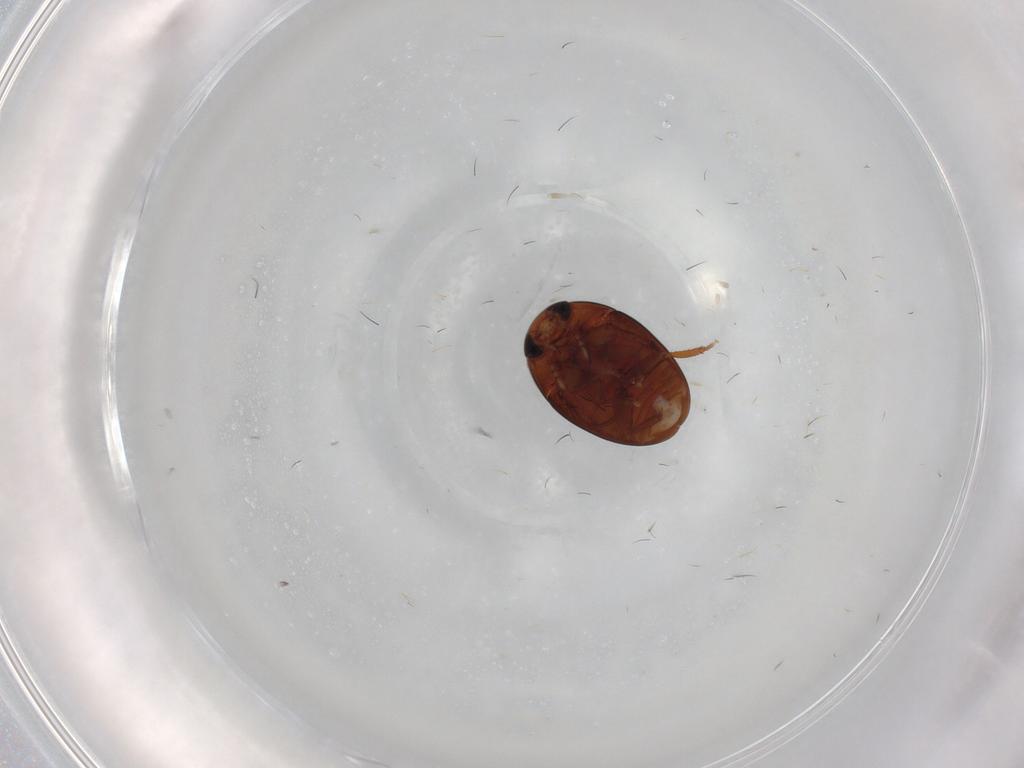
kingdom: Animalia
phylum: Arthropoda
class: Insecta
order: Coleoptera
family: Phalacridae
